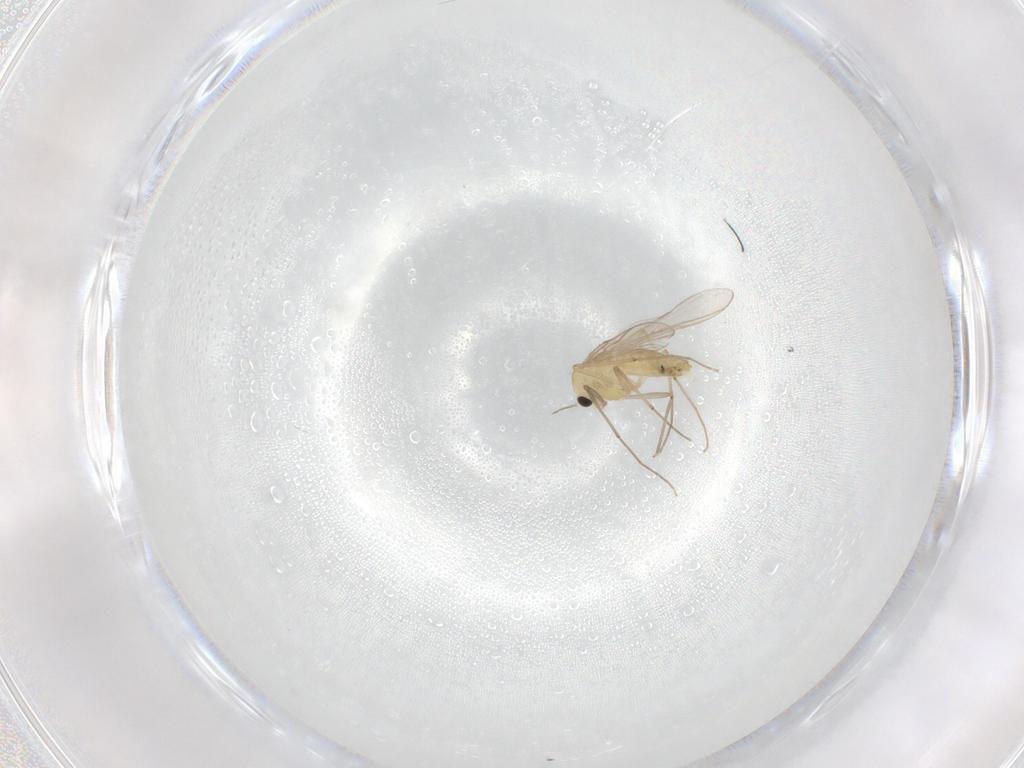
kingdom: Animalia
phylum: Arthropoda
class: Insecta
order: Diptera
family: Chironomidae
